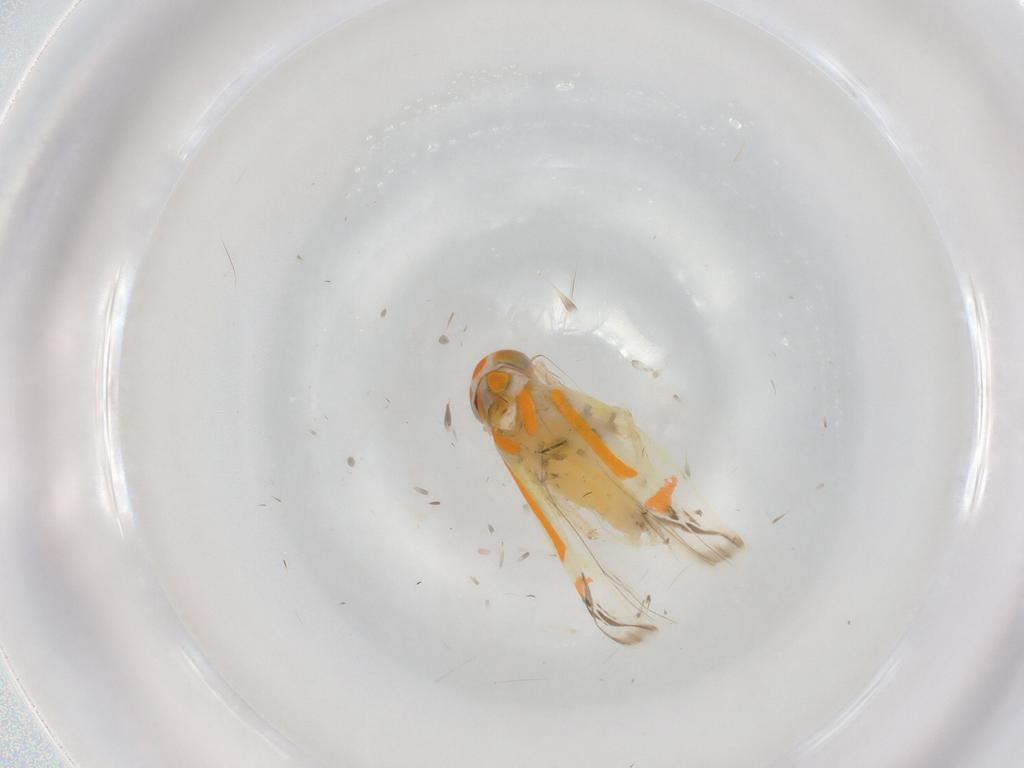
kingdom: Animalia
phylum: Arthropoda
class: Insecta
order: Hemiptera
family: Cicadellidae
